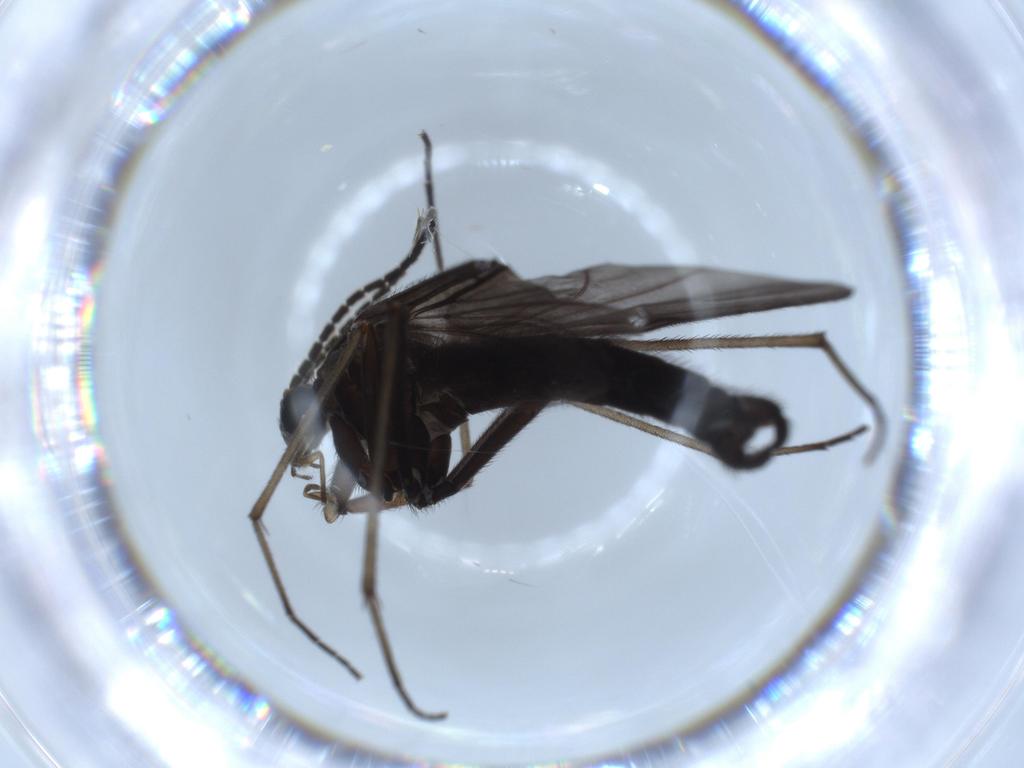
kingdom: Animalia
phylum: Arthropoda
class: Insecta
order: Diptera
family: Sciaridae
